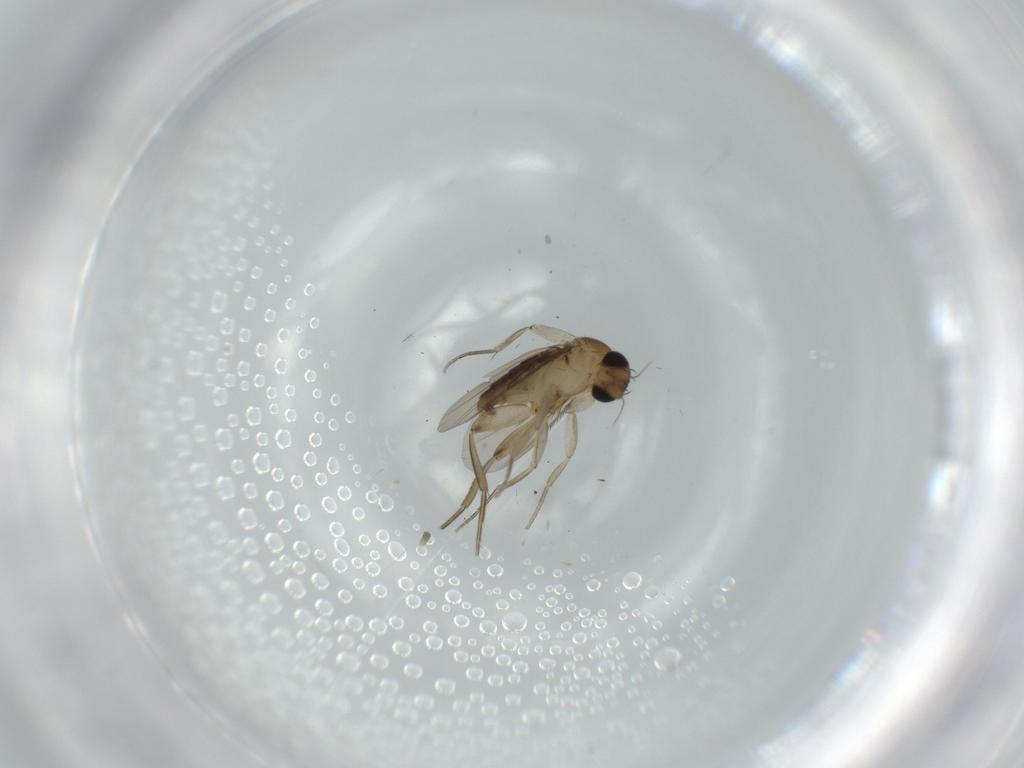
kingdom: Animalia
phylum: Arthropoda
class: Insecta
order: Diptera
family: Phoridae
